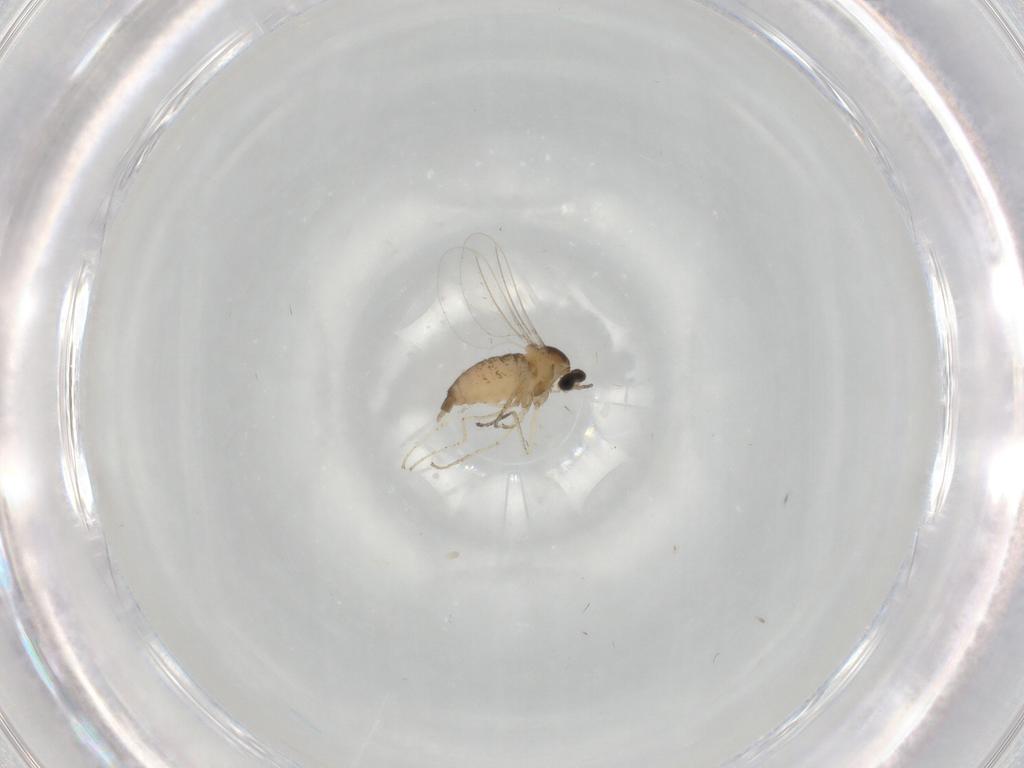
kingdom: Animalia
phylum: Arthropoda
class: Insecta
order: Diptera
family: Cecidomyiidae
